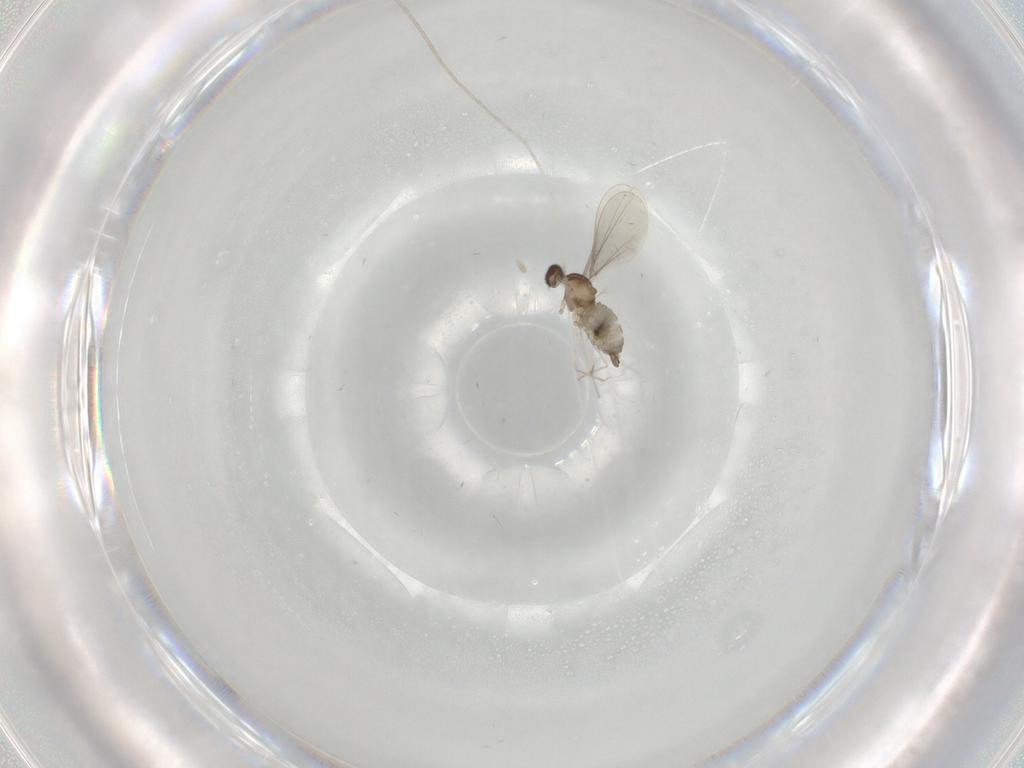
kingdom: Animalia
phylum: Arthropoda
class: Insecta
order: Diptera
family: Cecidomyiidae
